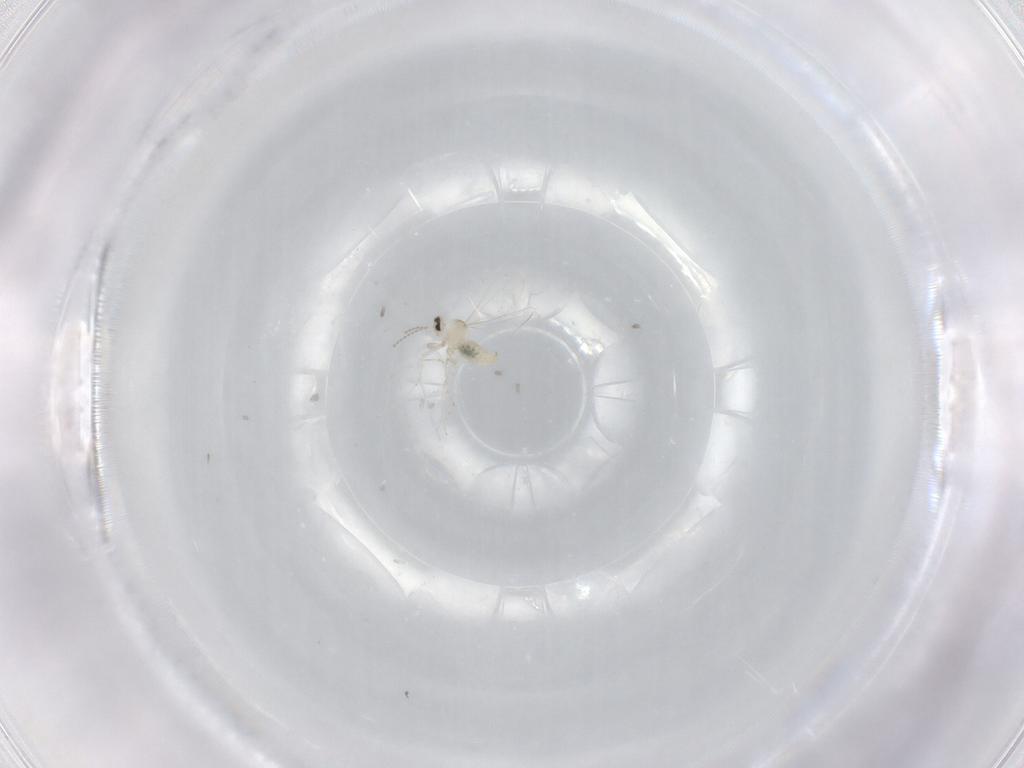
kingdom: Animalia
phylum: Arthropoda
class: Insecta
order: Diptera
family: Cecidomyiidae
